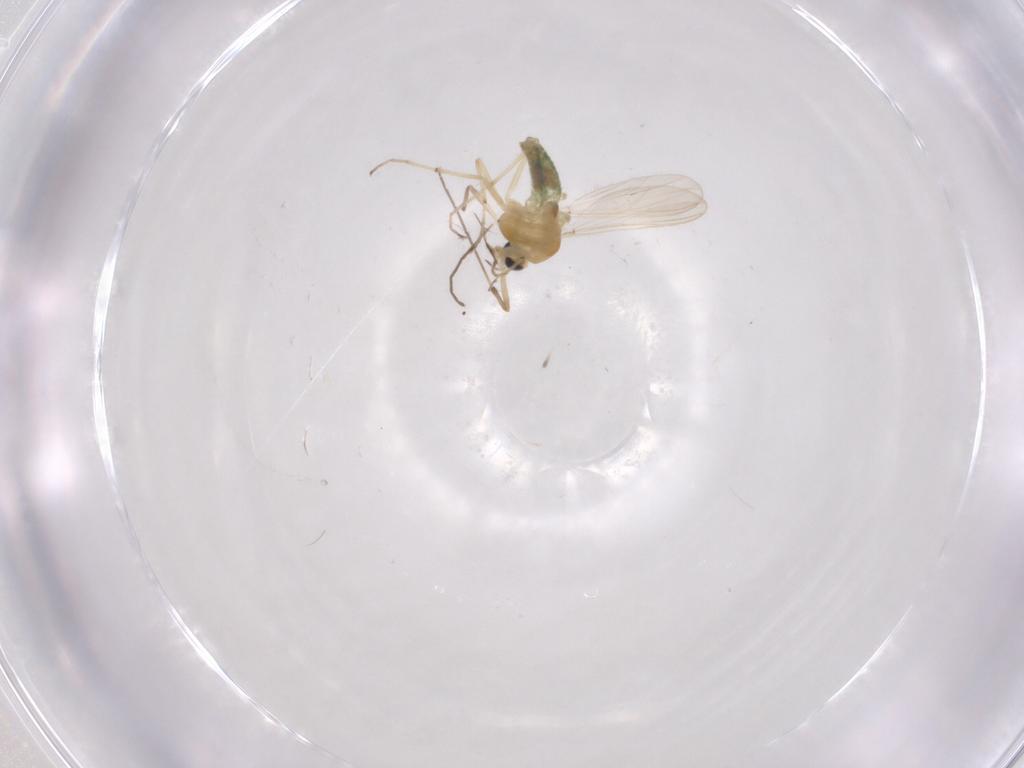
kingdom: Animalia
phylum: Arthropoda
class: Insecta
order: Diptera
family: Chironomidae
